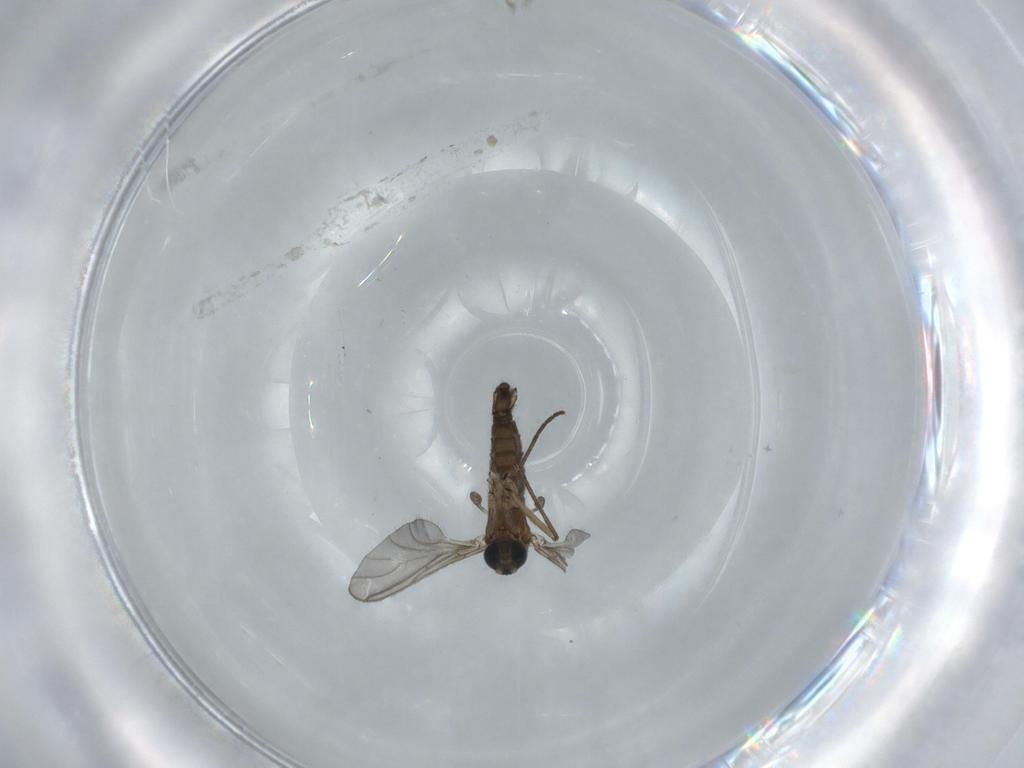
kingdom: Animalia
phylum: Arthropoda
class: Insecta
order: Diptera
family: Sciaridae
